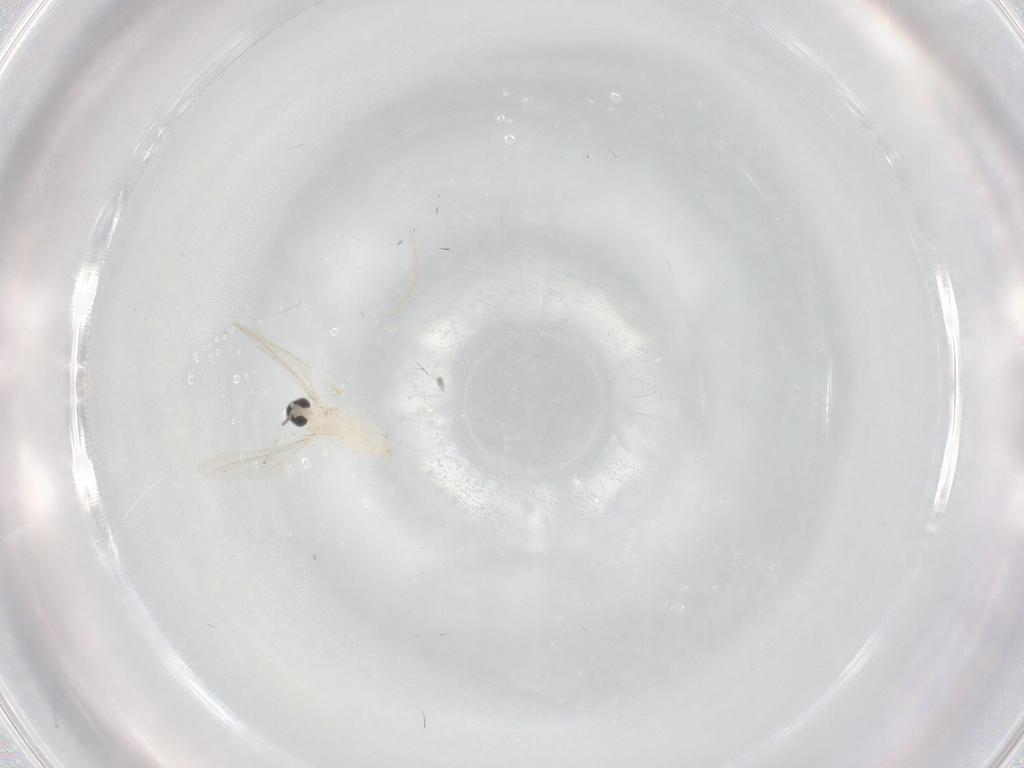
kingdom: Animalia
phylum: Arthropoda
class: Insecta
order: Diptera
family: Cecidomyiidae
